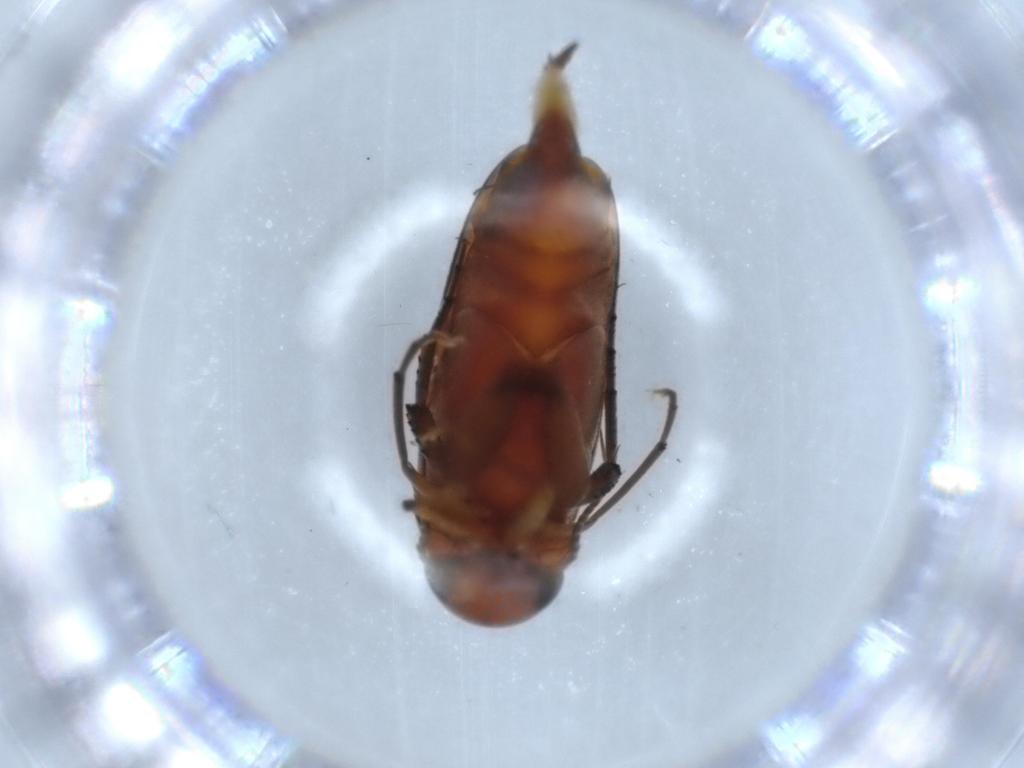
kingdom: Animalia
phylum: Arthropoda
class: Insecta
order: Coleoptera
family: Mordellidae
